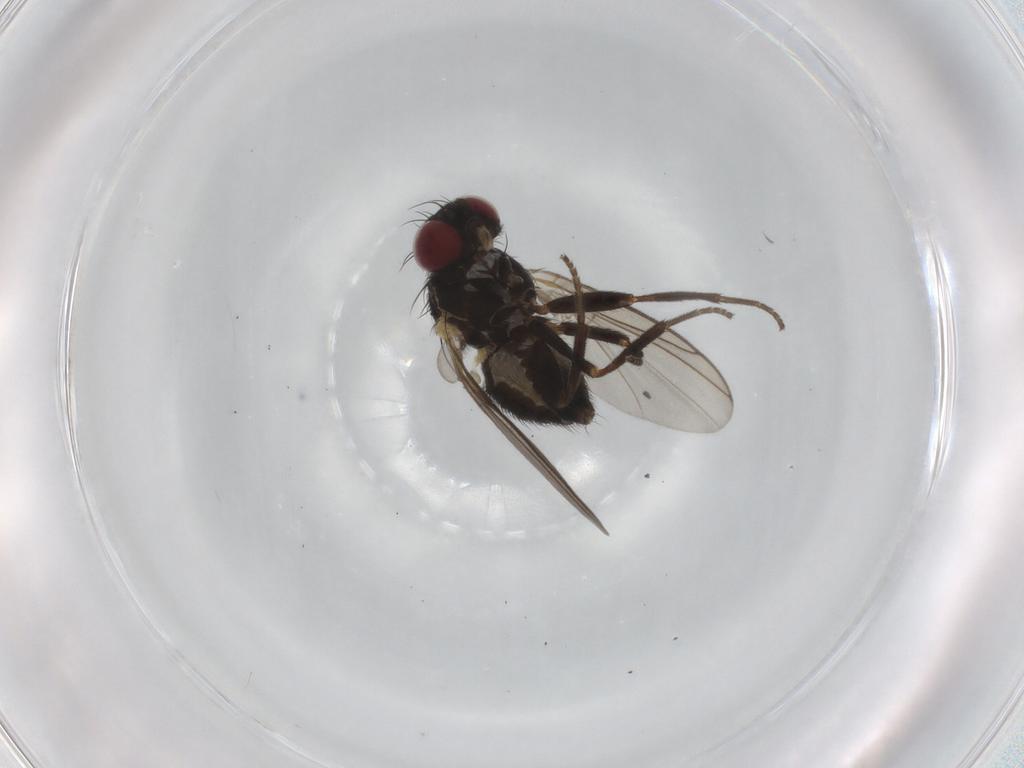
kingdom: Animalia
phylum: Arthropoda
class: Insecta
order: Diptera
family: Agromyzidae
